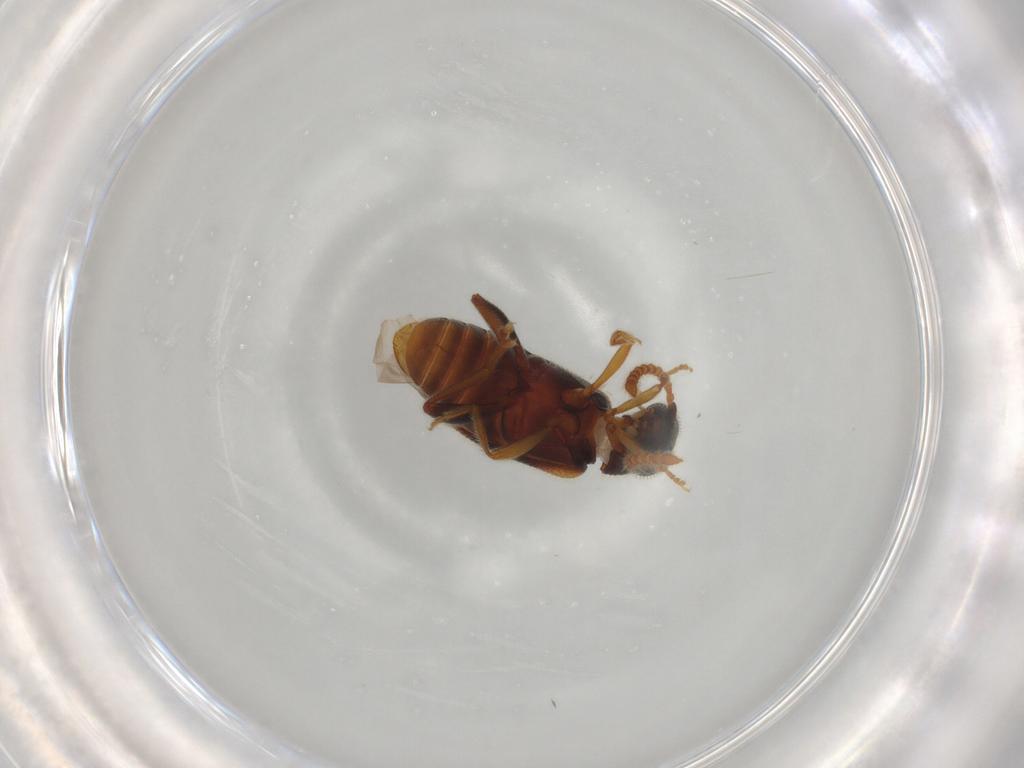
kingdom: Animalia
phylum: Arthropoda
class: Insecta
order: Coleoptera
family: Aderidae
